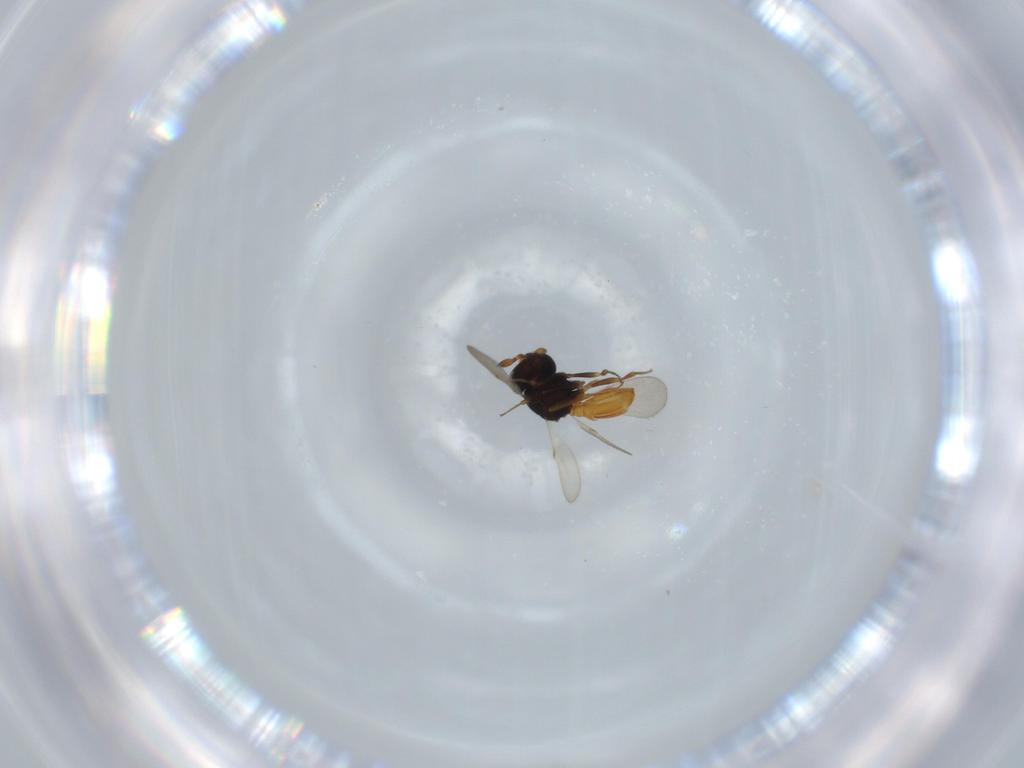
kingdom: Animalia
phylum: Arthropoda
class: Insecta
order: Hymenoptera
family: Scelionidae
